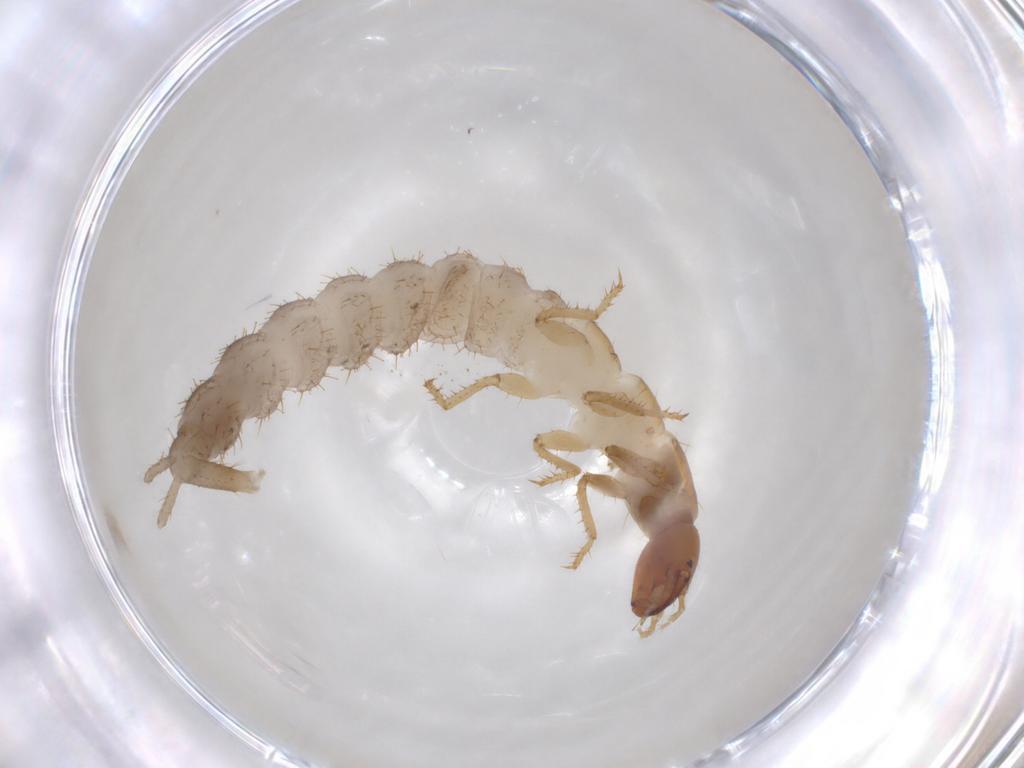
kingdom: Animalia
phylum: Arthropoda
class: Insecta
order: Coleoptera
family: Staphylinidae
